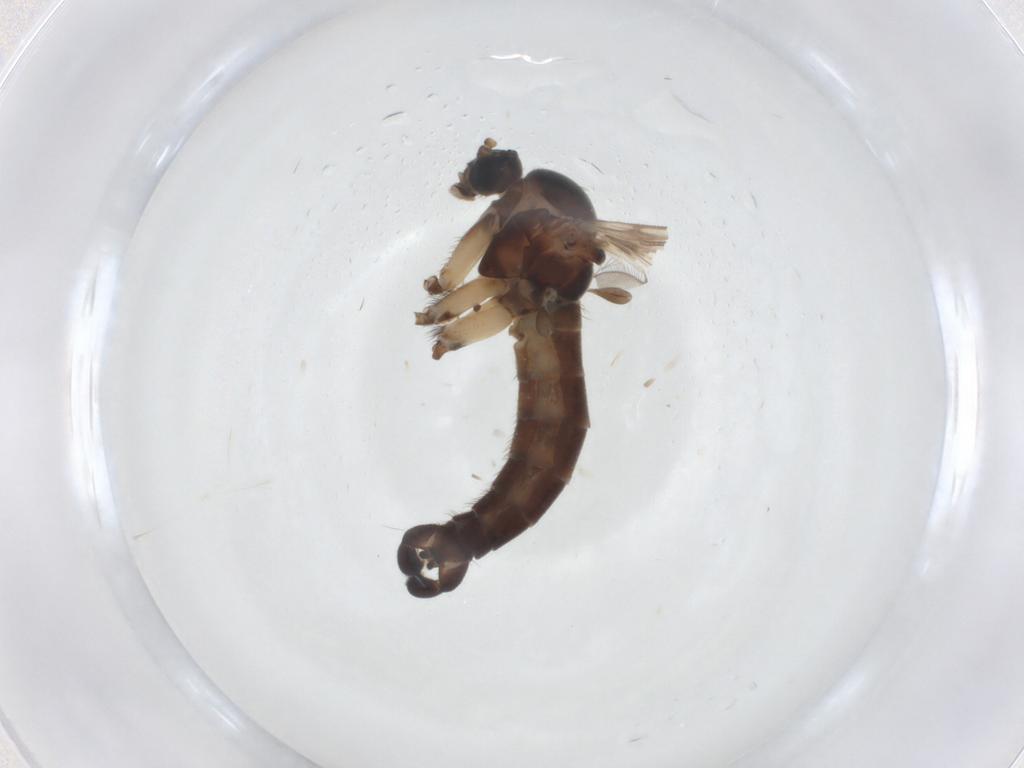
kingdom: Animalia
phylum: Arthropoda
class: Insecta
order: Diptera
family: Sciaridae
